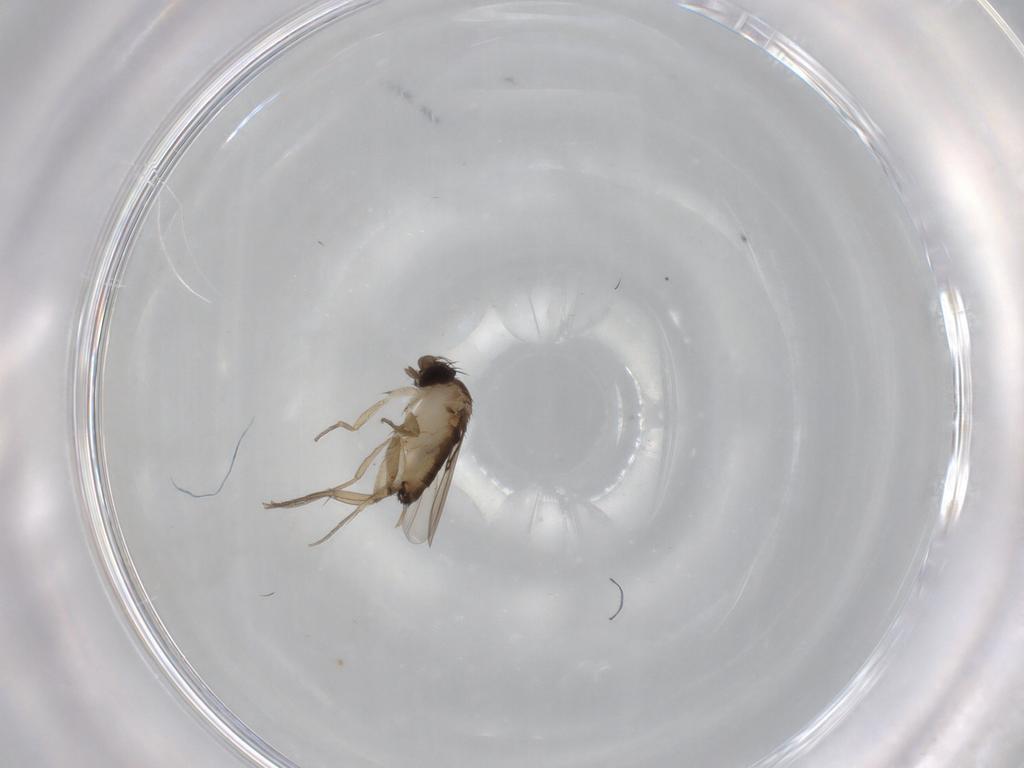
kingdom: Animalia
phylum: Arthropoda
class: Insecta
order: Diptera
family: Phoridae
